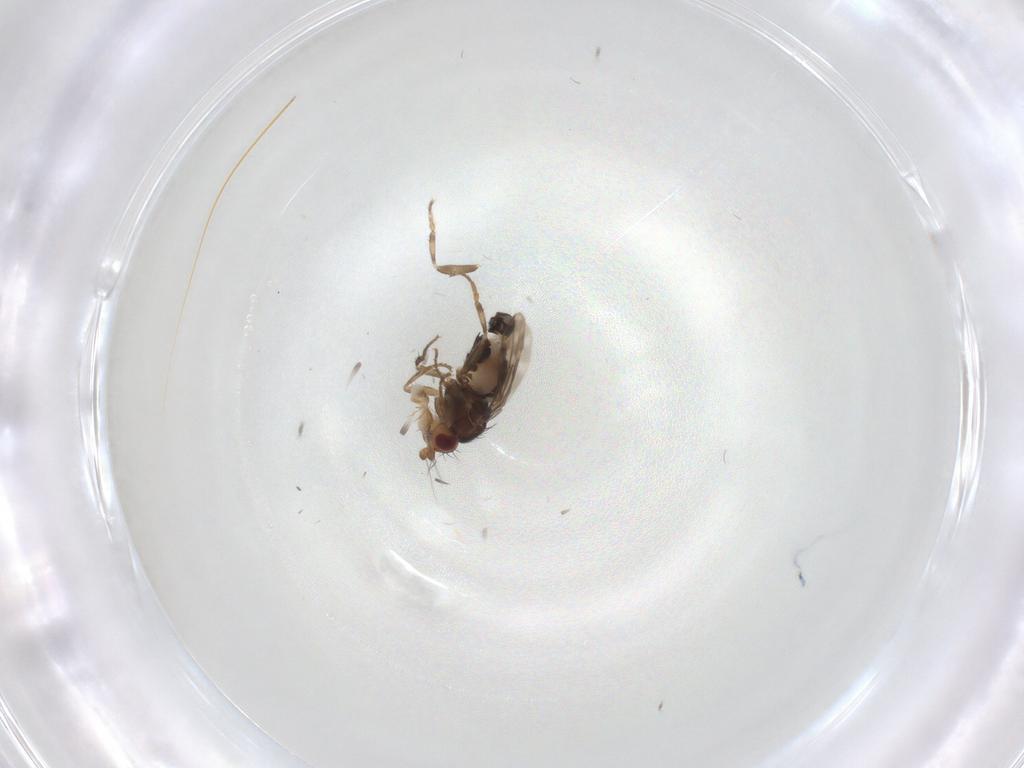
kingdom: Animalia
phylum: Arthropoda
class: Insecta
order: Diptera
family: Sphaeroceridae
